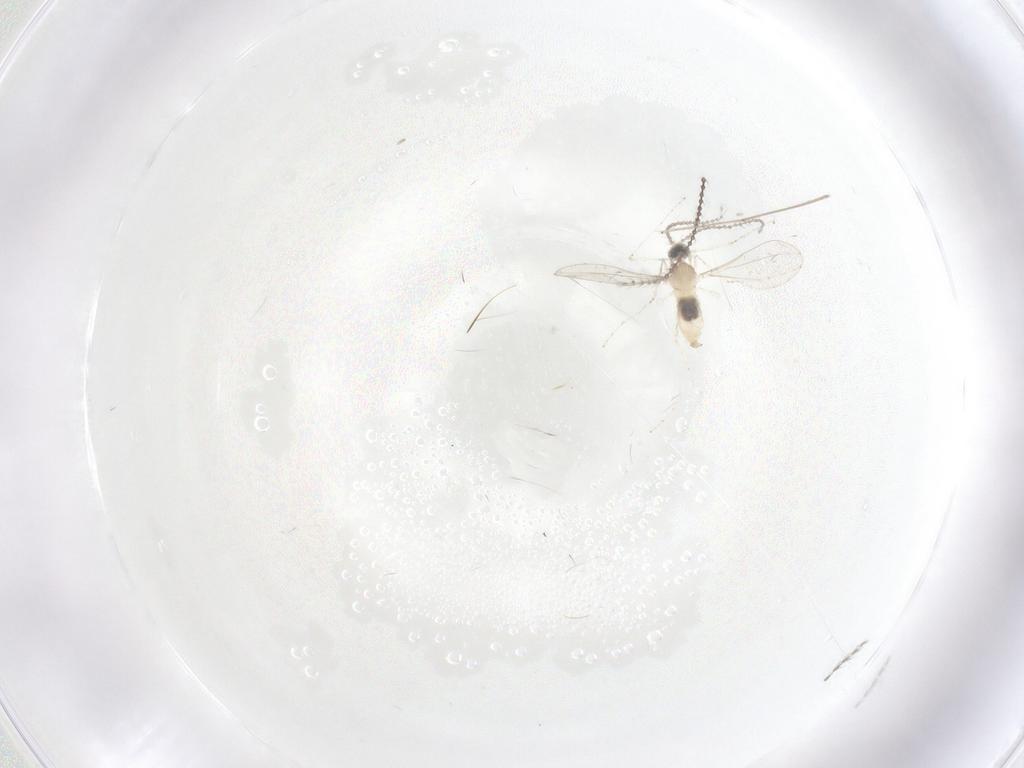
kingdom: Animalia
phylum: Arthropoda
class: Insecta
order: Diptera
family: Cecidomyiidae
